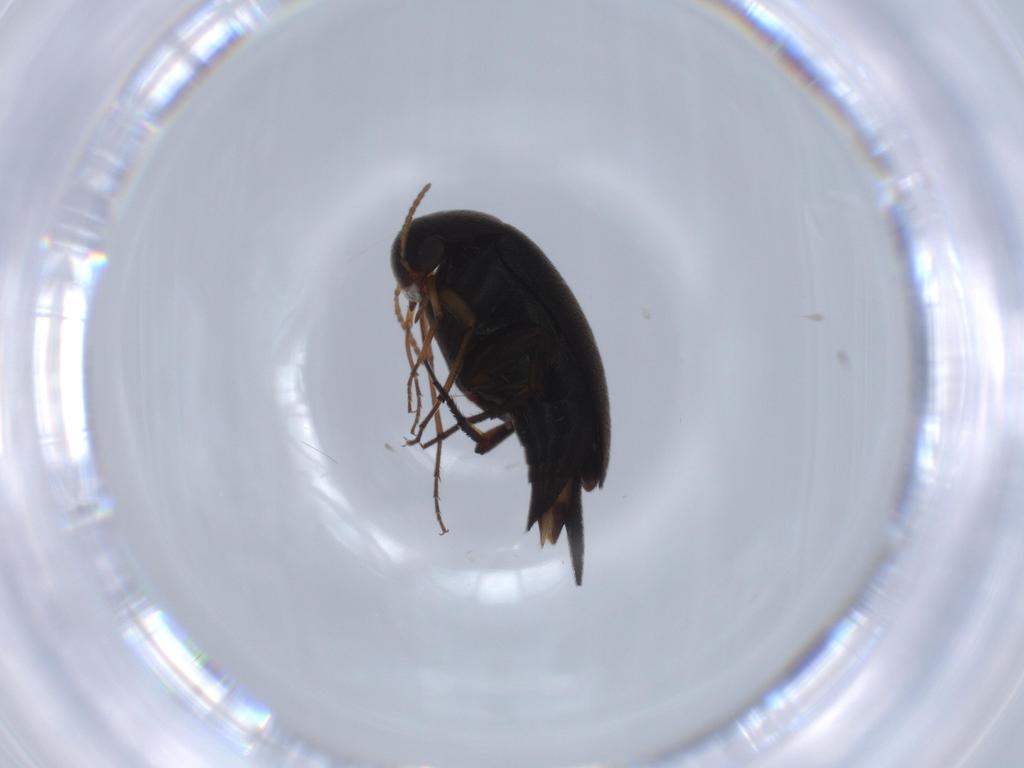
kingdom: Animalia
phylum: Arthropoda
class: Insecta
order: Coleoptera
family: Mordellidae
